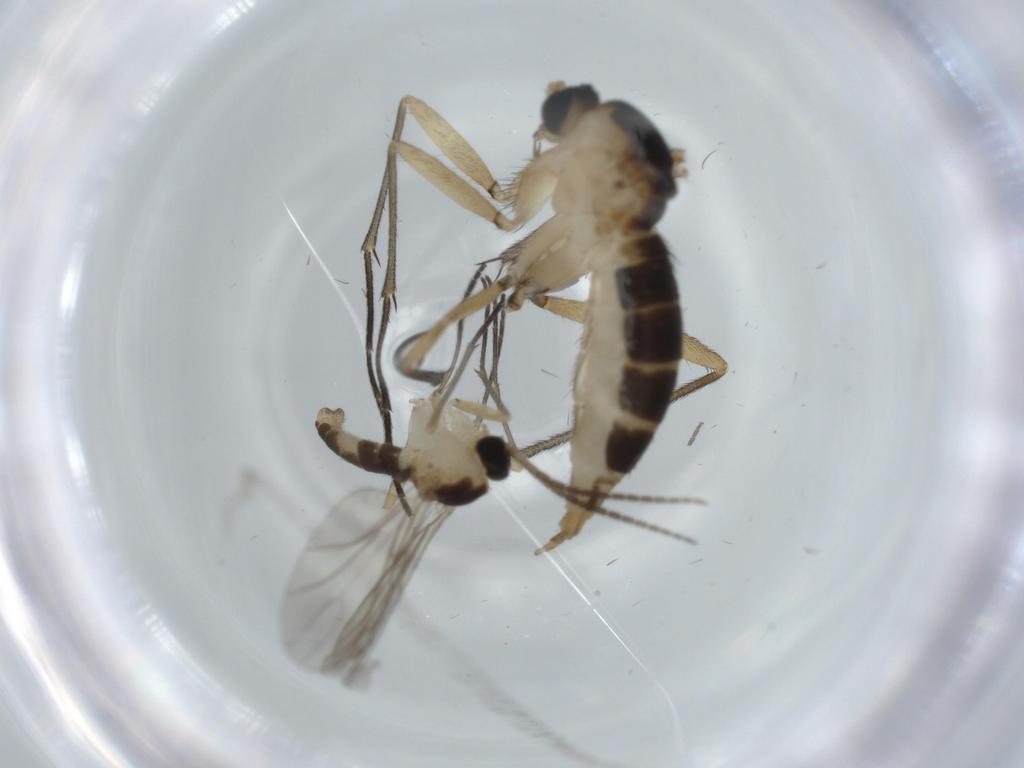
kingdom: Animalia
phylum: Arthropoda
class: Insecta
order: Diptera
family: Sciaridae
